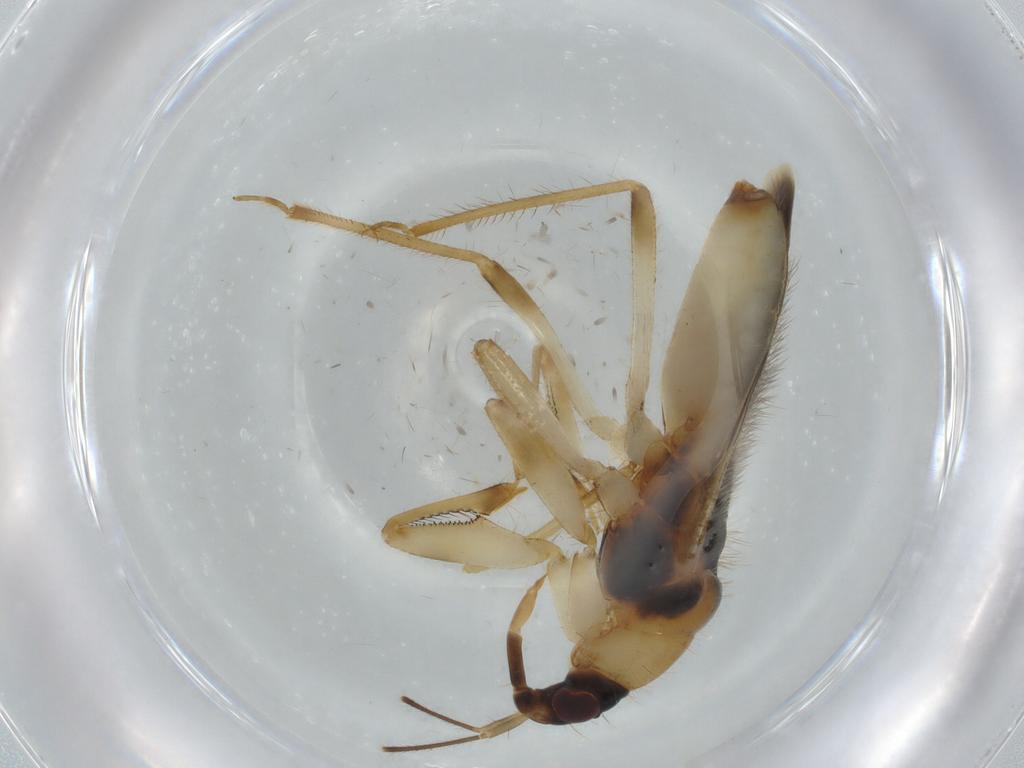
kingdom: Animalia
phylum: Arthropoda
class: Insecta
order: Hemiptera
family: Nabidae
